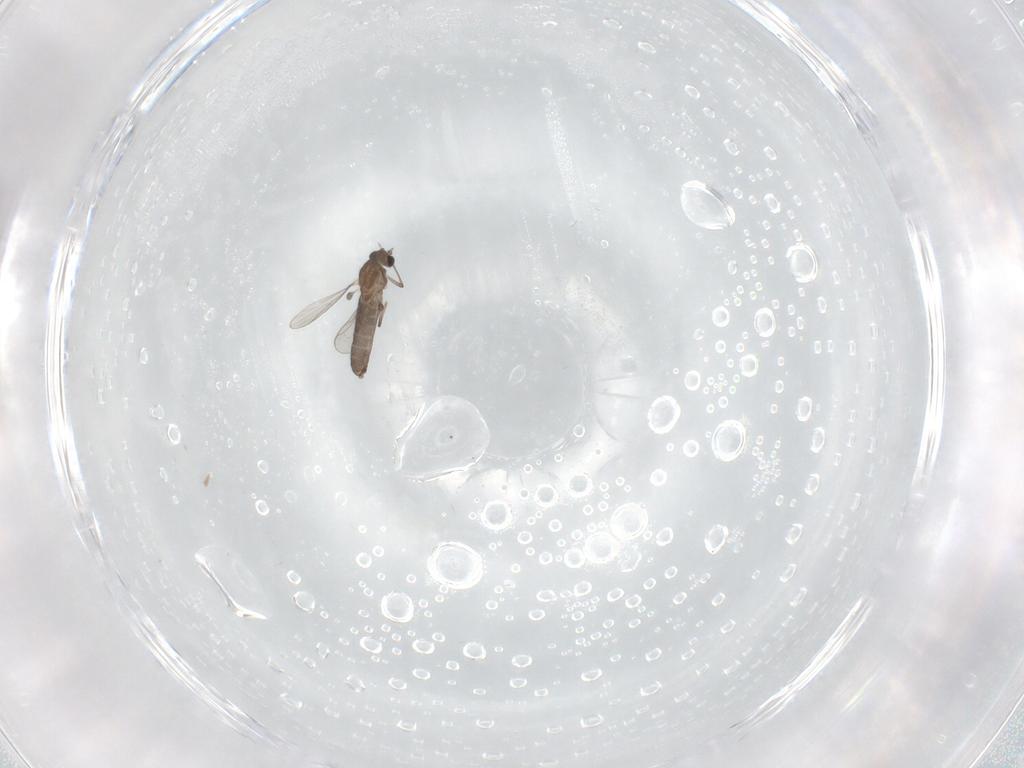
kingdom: Animalia
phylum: Arthropoda
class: Insecta
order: Diptera
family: Chironomidae
